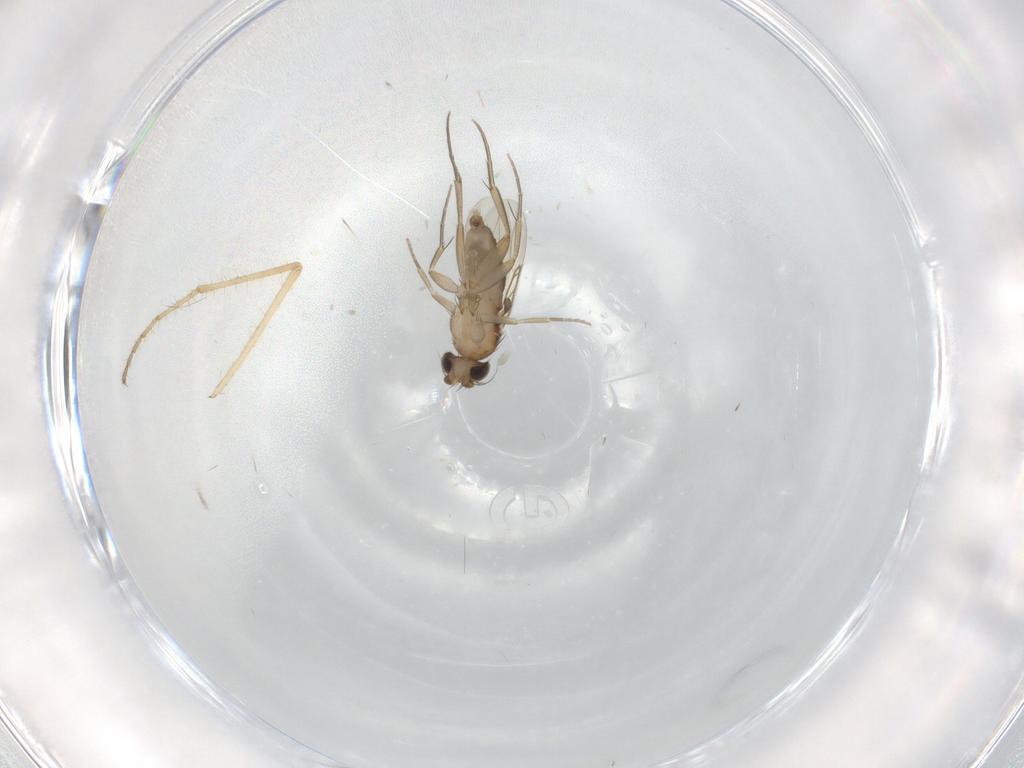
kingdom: Animalia
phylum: Arthropoda
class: Insecta
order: Diptera
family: Phoridae
